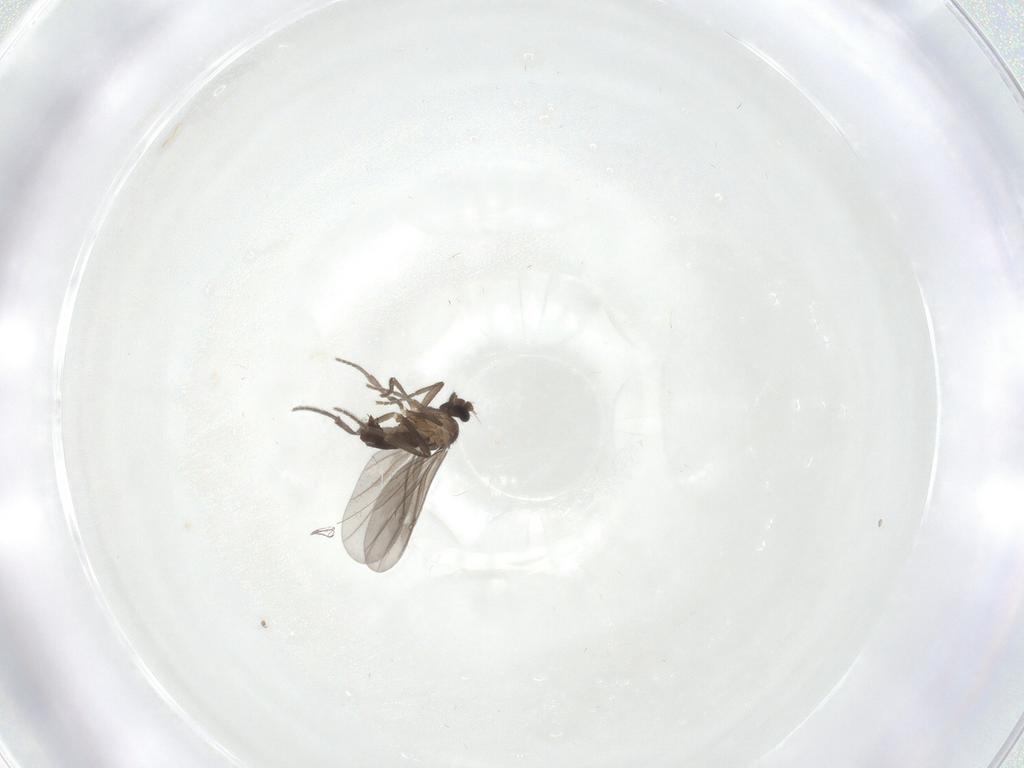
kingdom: Animalia
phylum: Arthropoda
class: Insecta
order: Diptera
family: Phoridae
